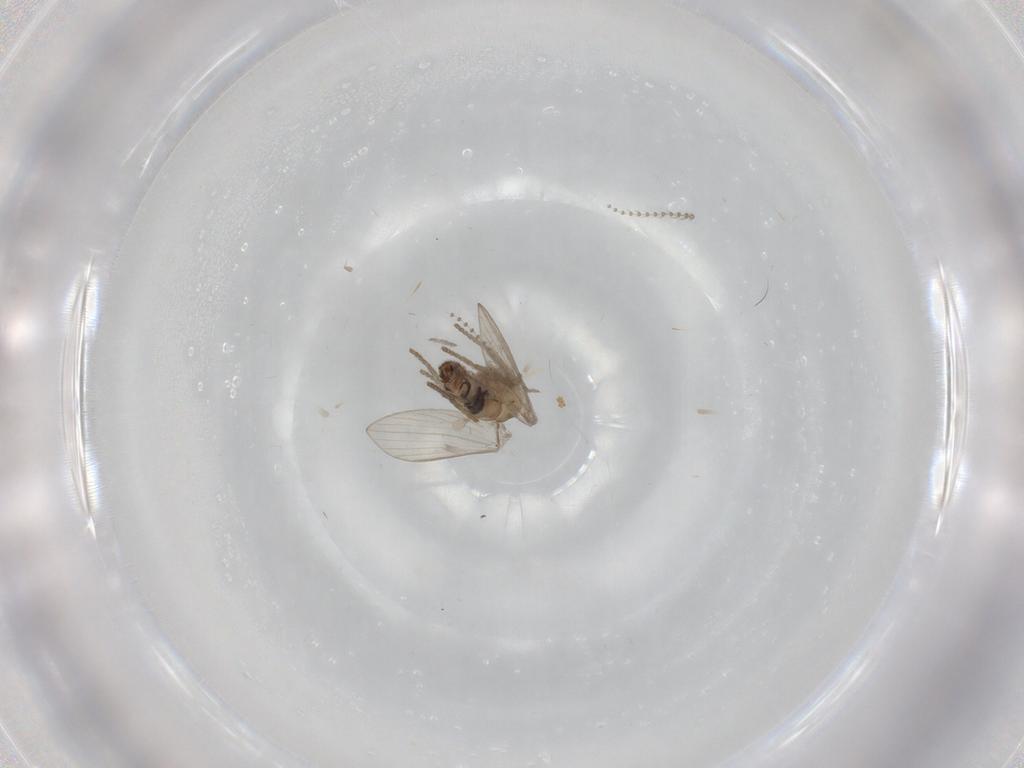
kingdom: Animalia
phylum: Arthropoda
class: Insecta
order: Diptera
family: Psychodidae
